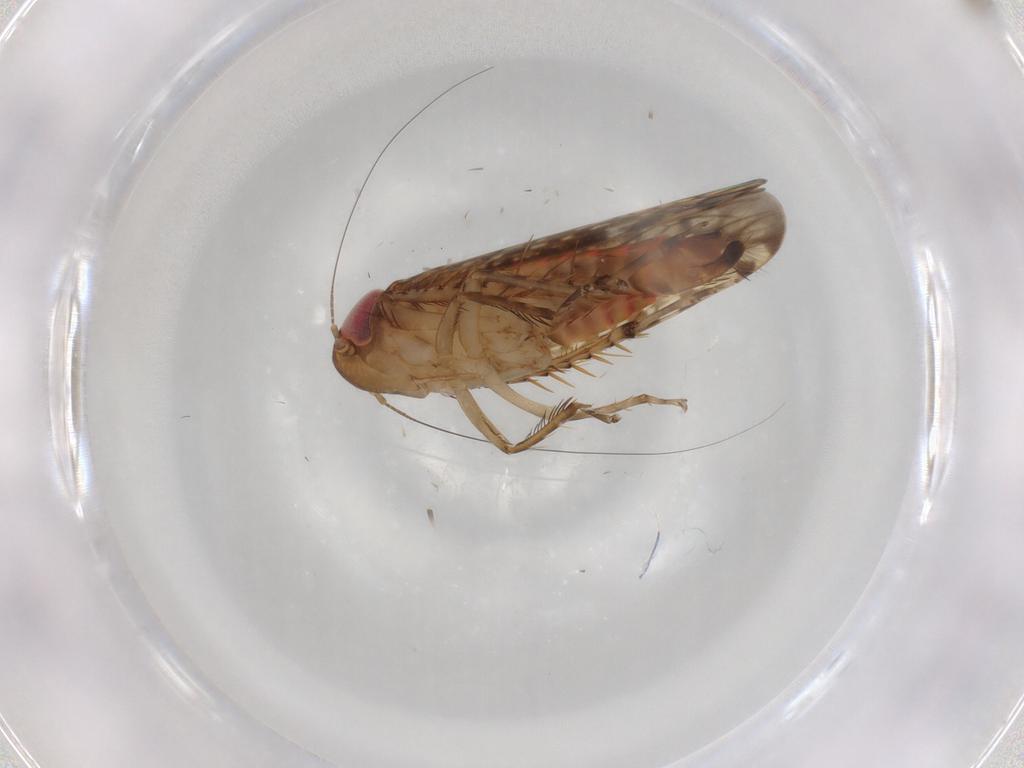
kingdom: Animalia
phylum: Arthropoda
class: Insecta
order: Hemiptera
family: Cicadellidae
